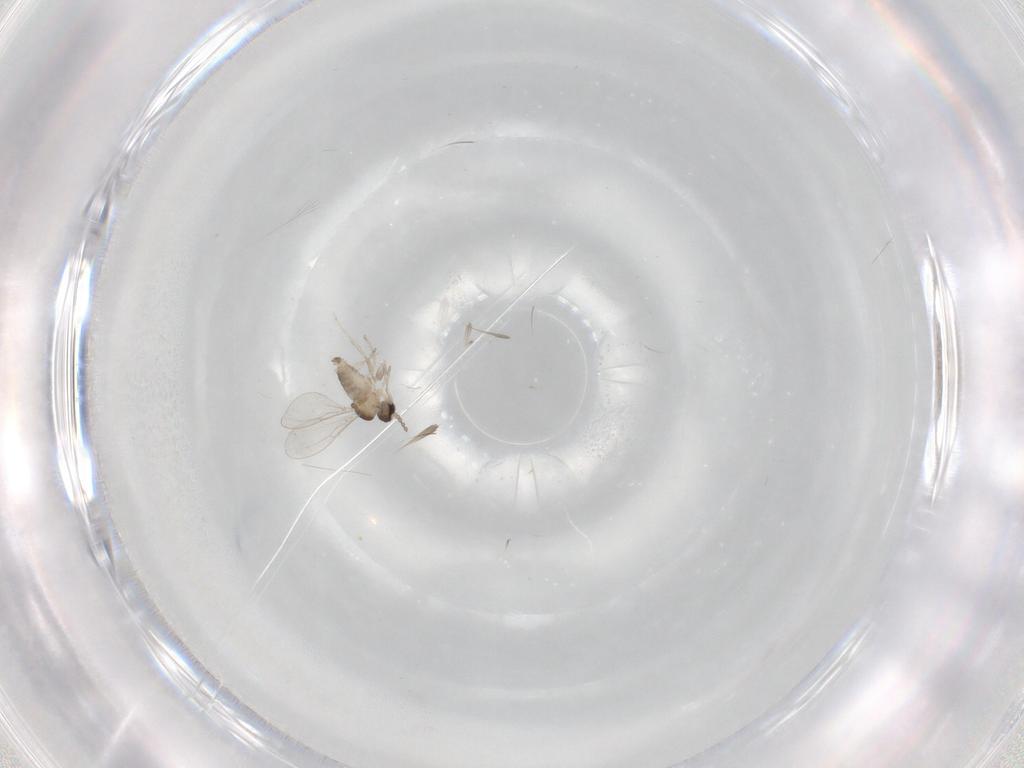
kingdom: Animalia
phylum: Arthropoda
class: Insecta
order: Diptera
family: Cecidomyiidae
